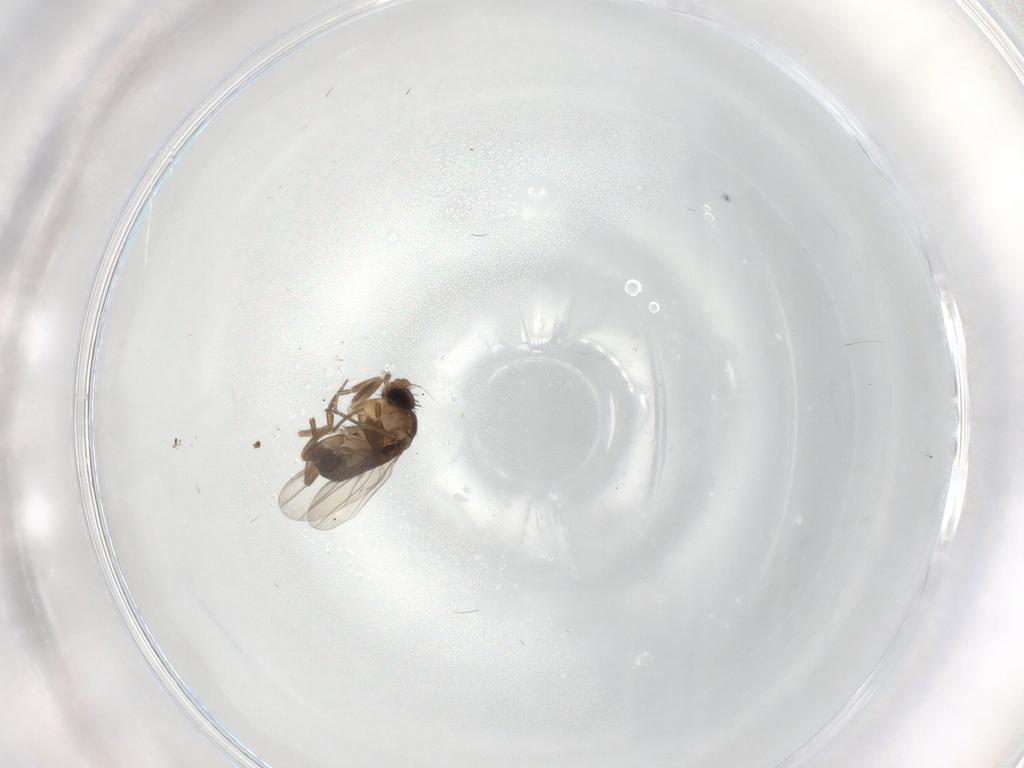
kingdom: Animalia
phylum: Arthropoda
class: Insecta
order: Diptera
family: Phoridae
